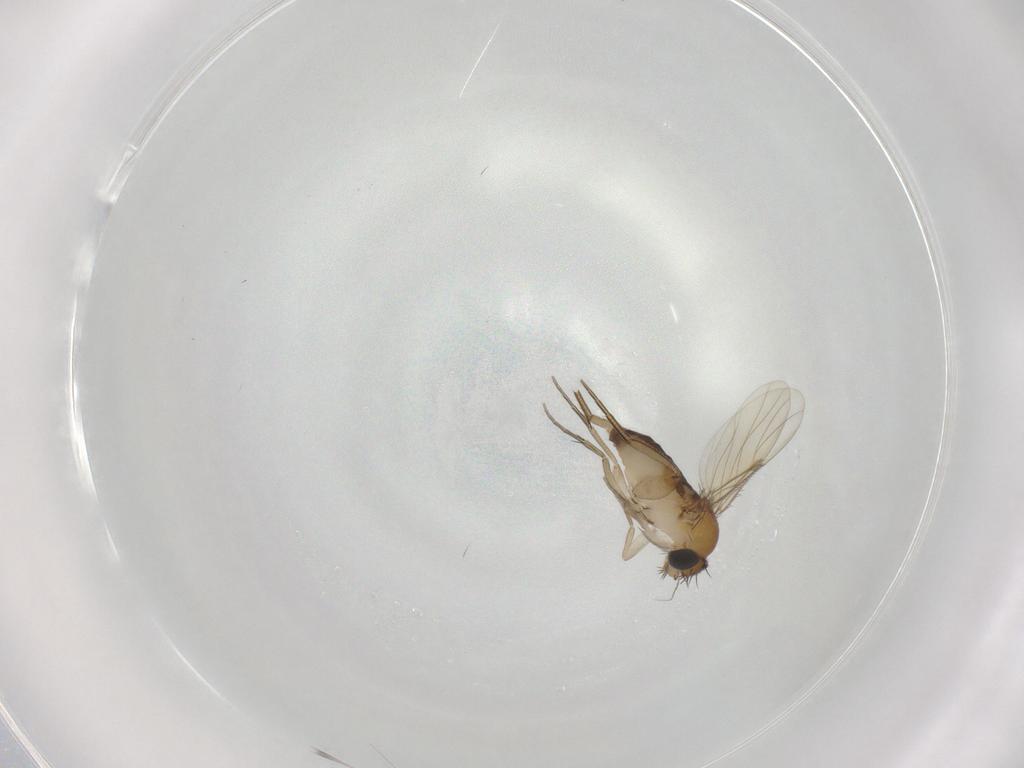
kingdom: Animalia
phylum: Arthropoda
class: Insecta
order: Diptera
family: Phoridae
